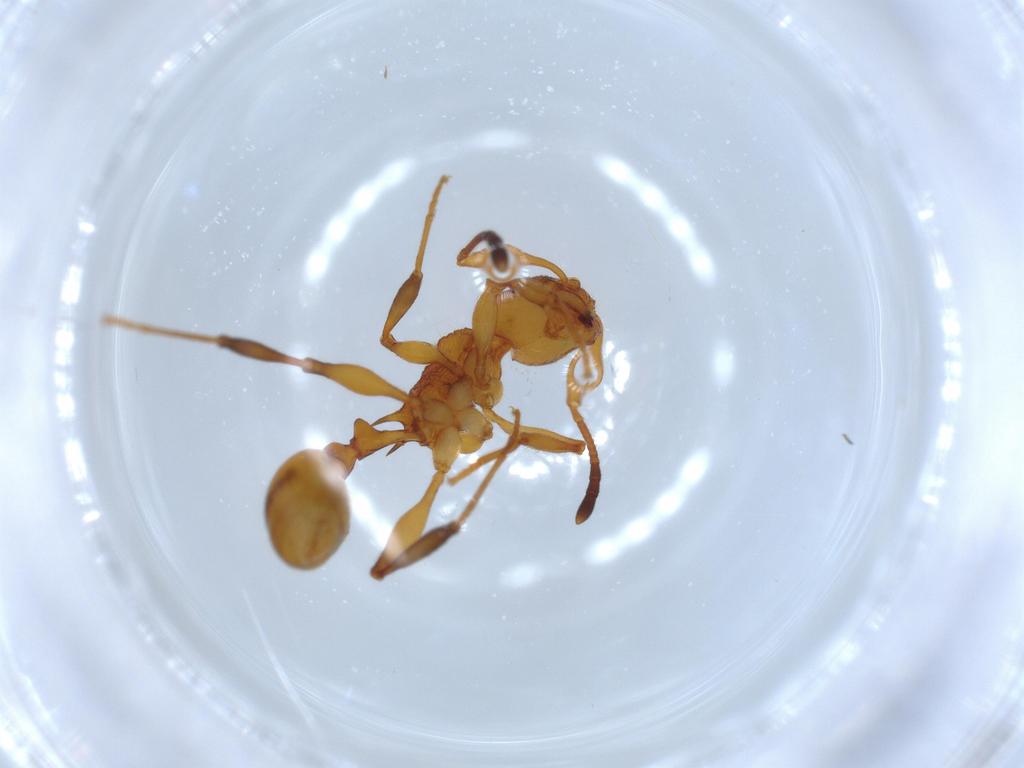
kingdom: Animalia
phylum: Arthropoda
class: Insecta
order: Hymenoptera
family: Formicidae
